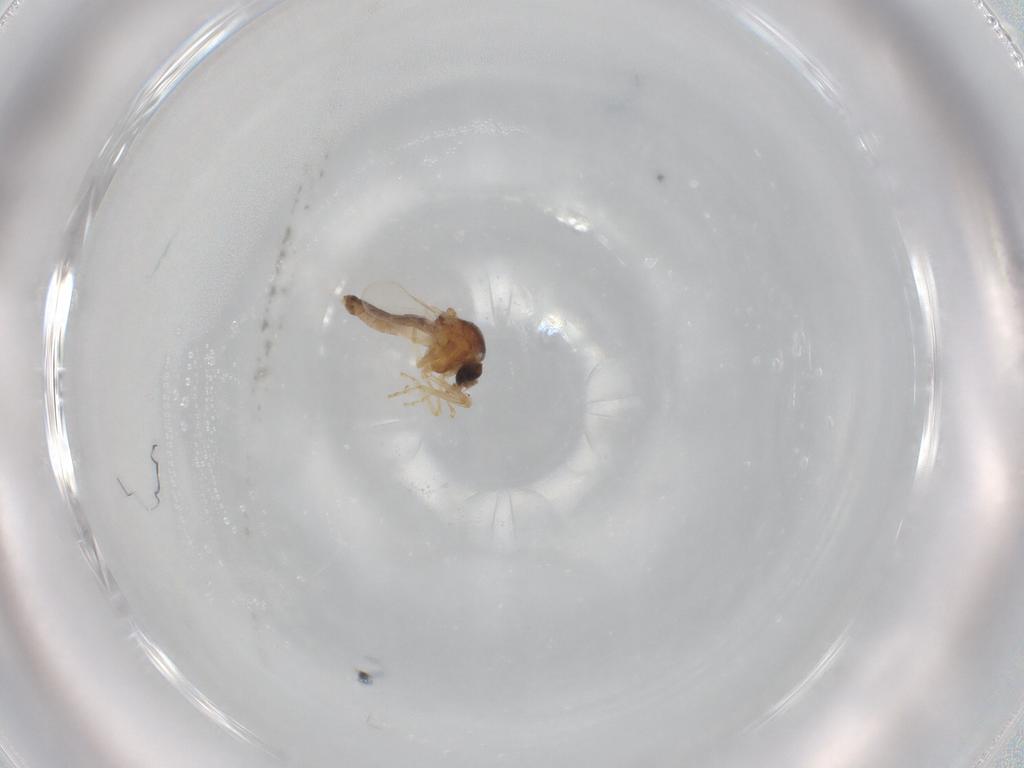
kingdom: Animalia
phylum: Arthropoda
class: Insecta
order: Diptera
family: Ceratopogonidae
